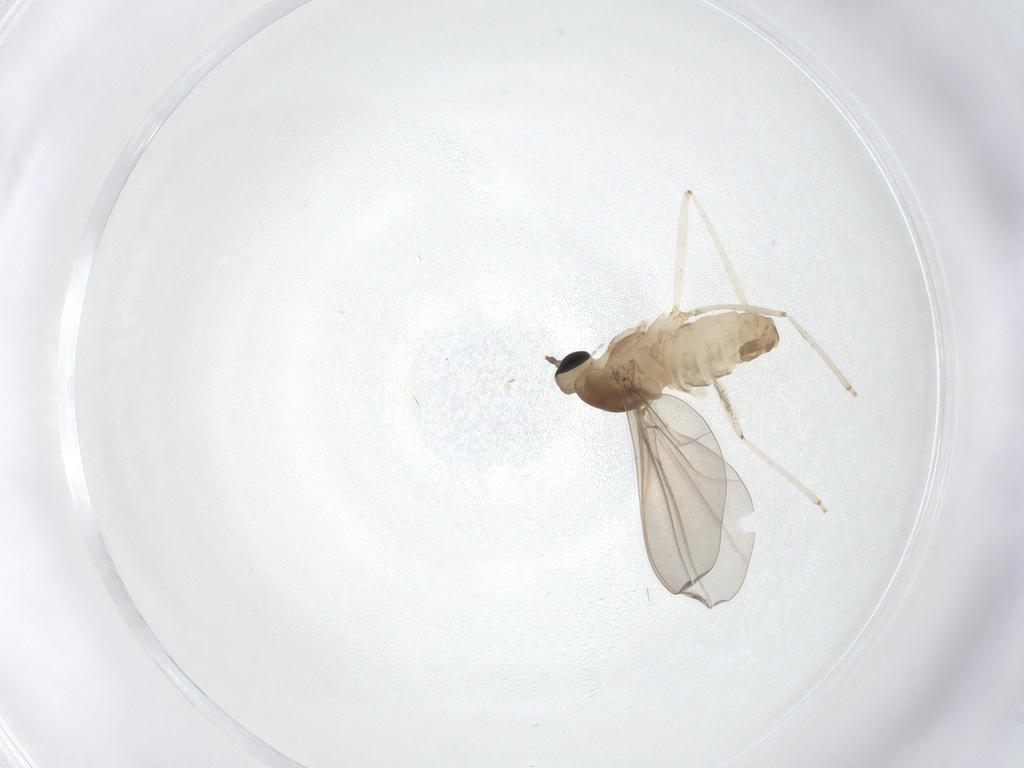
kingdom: Animalia
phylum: Arthropoda
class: Insecta
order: Diptera
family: Cecidomyiidae
